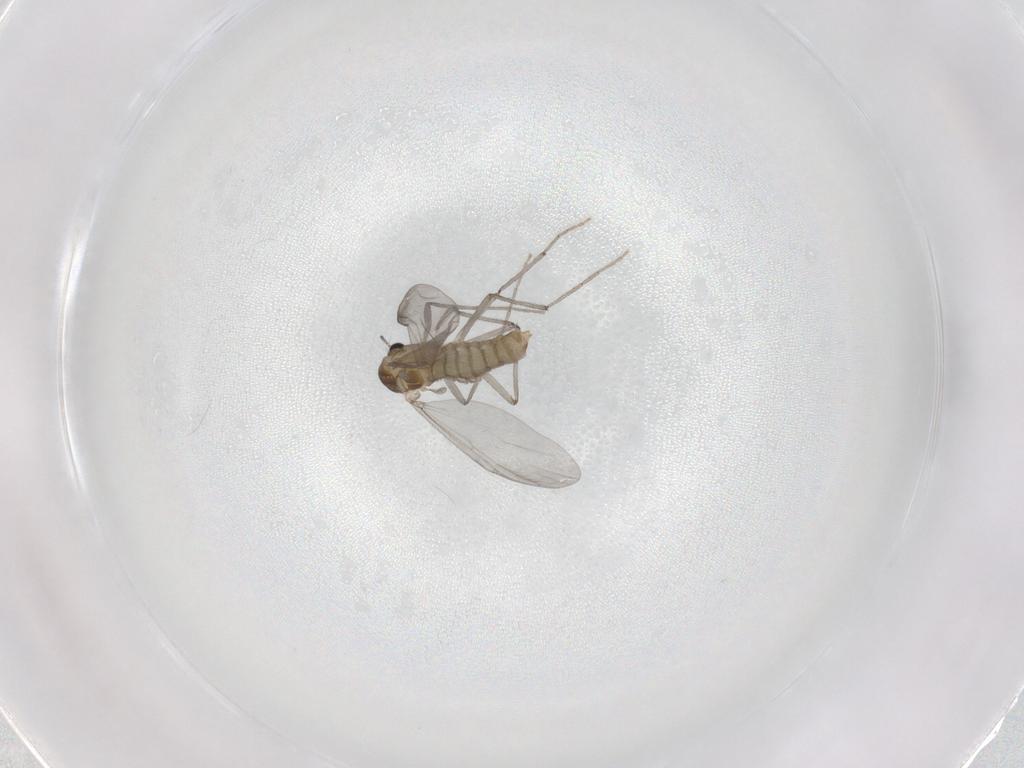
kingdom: Animalia
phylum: Arthropoda
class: Insecta
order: Diptera
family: Chironomidae
